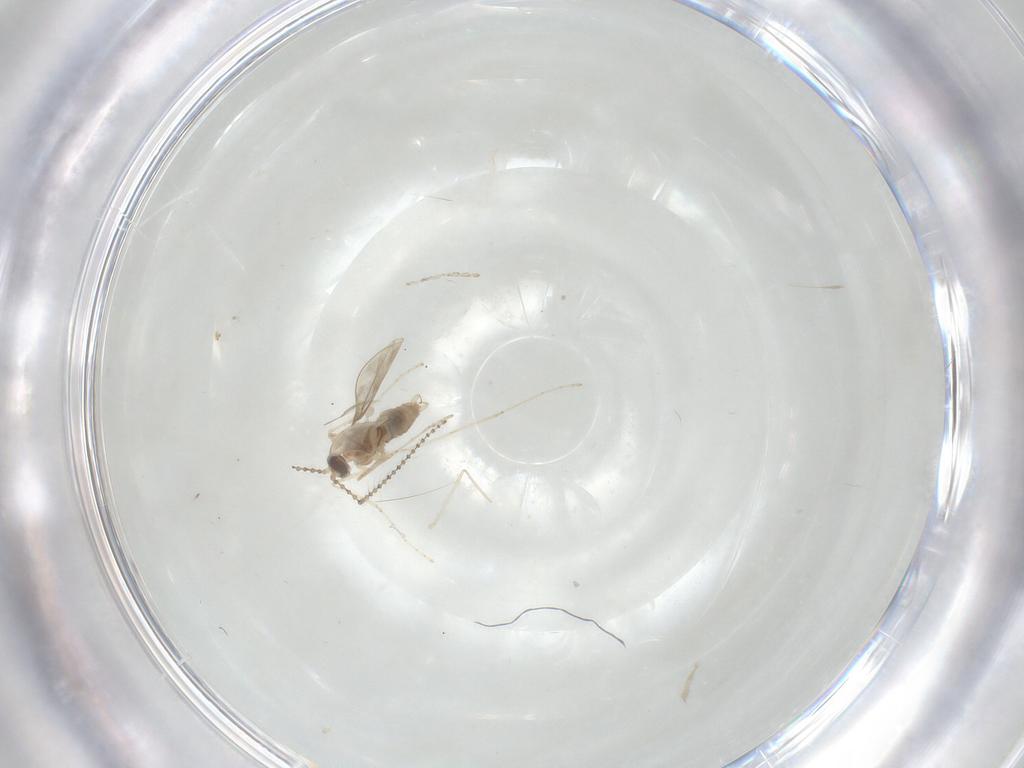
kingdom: Animalia
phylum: Arthropoda
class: Insecta
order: Diptera
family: Cecidomyiidae
